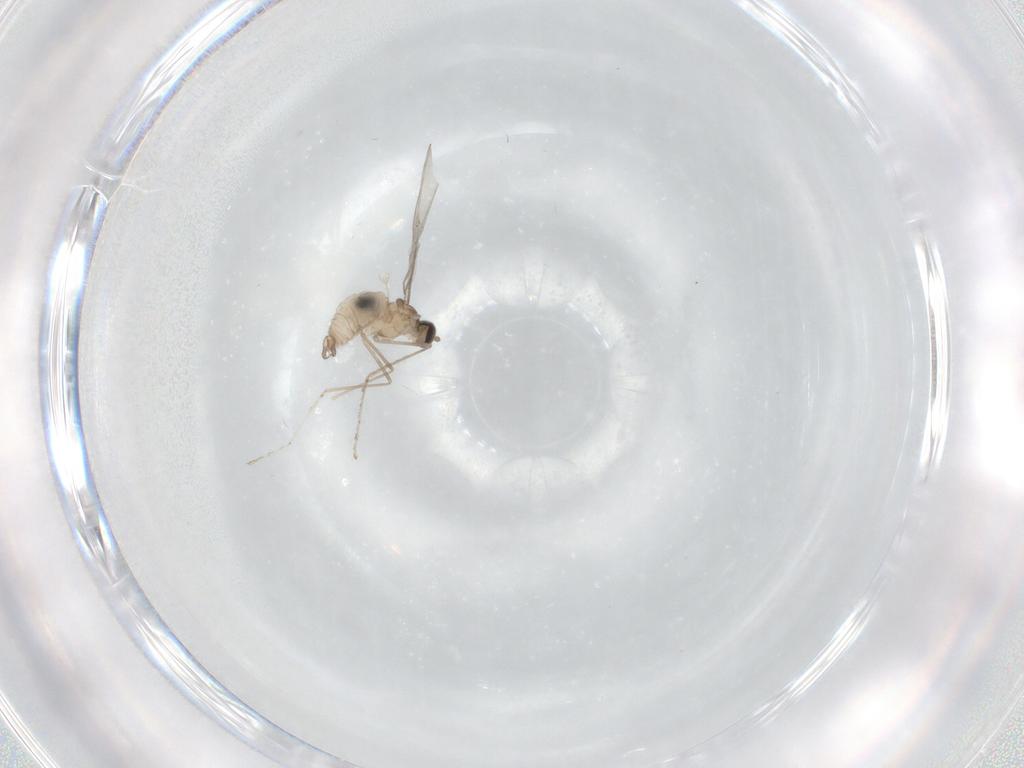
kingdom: Animalia
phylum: Arthropoda
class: Insecta
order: Diptera
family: Cecidomyiidae
